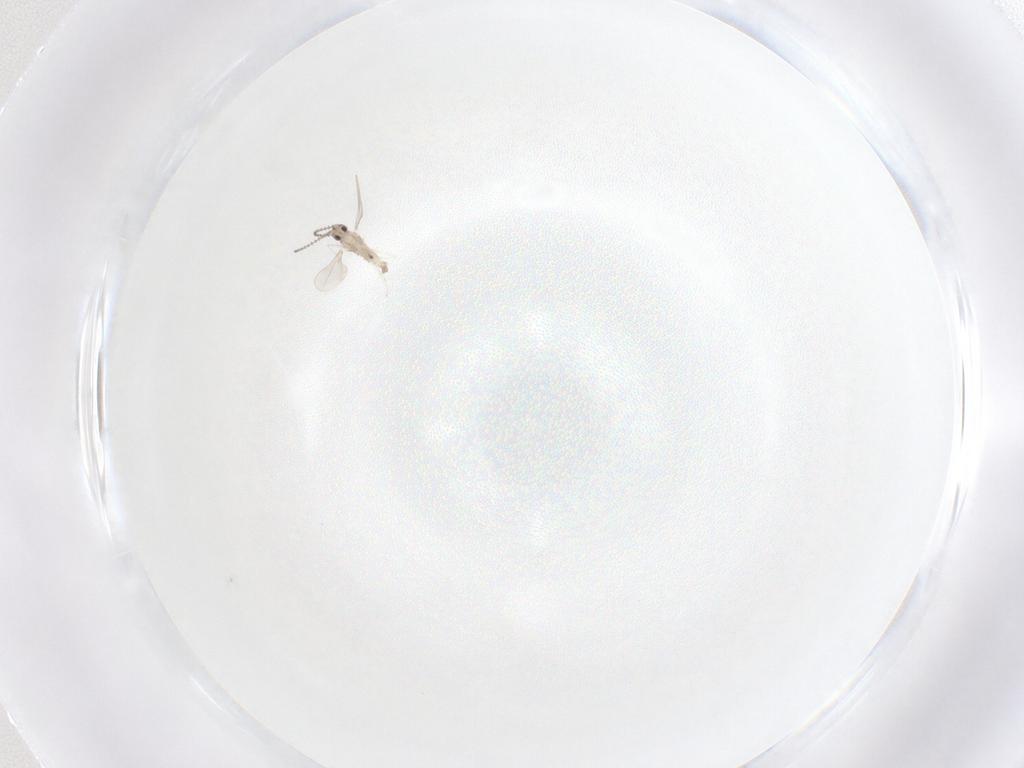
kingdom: Animalia
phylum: Arthropoda
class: Insecta
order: Diptera
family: Cecidomyiidae
